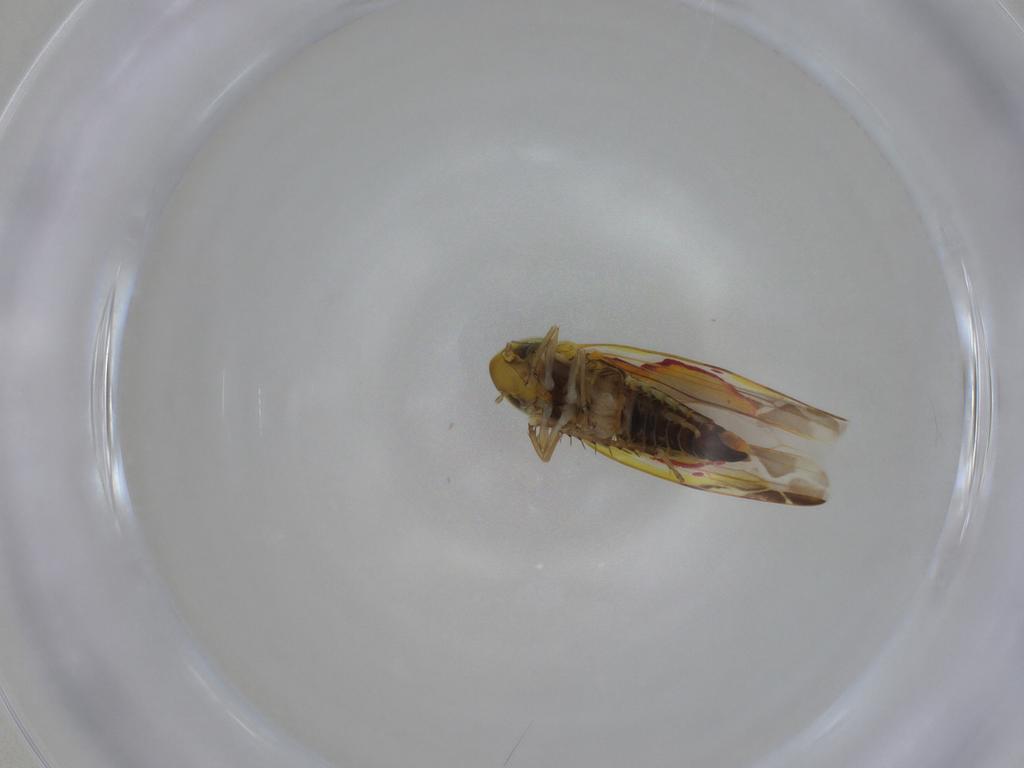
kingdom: Animalia
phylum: Arthropoda
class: Insecta
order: Hemiptera
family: Cicadellidae
